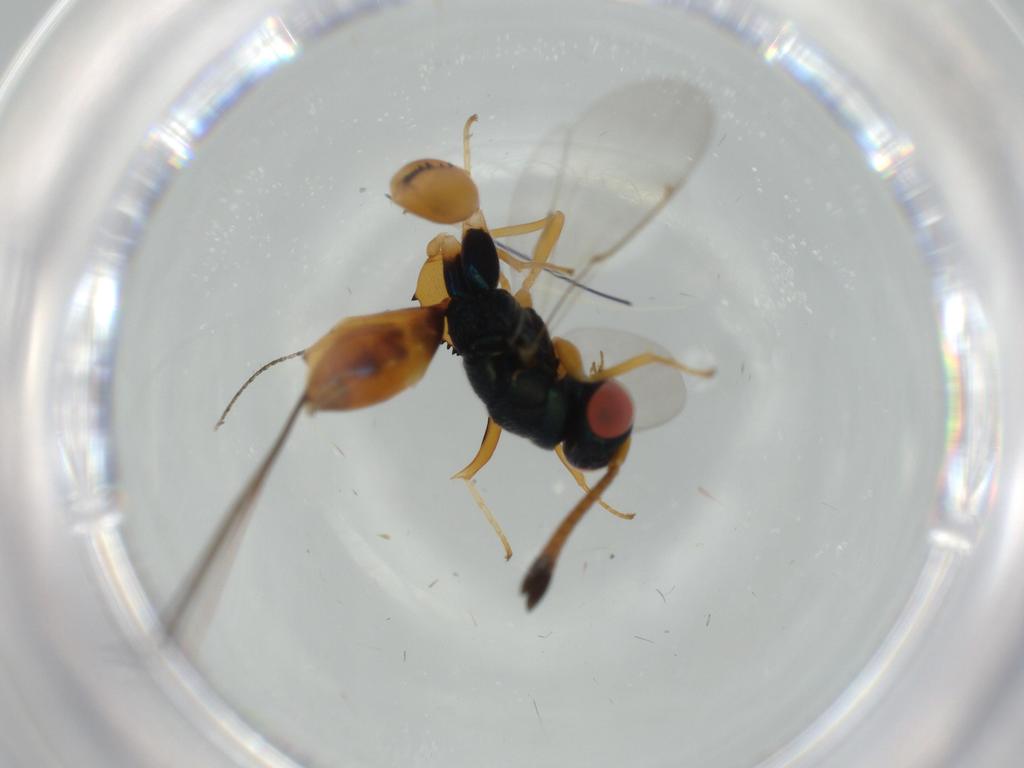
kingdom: Animalia
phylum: Arthropoda
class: Insecta
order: Hymenoptera
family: Torymidae
